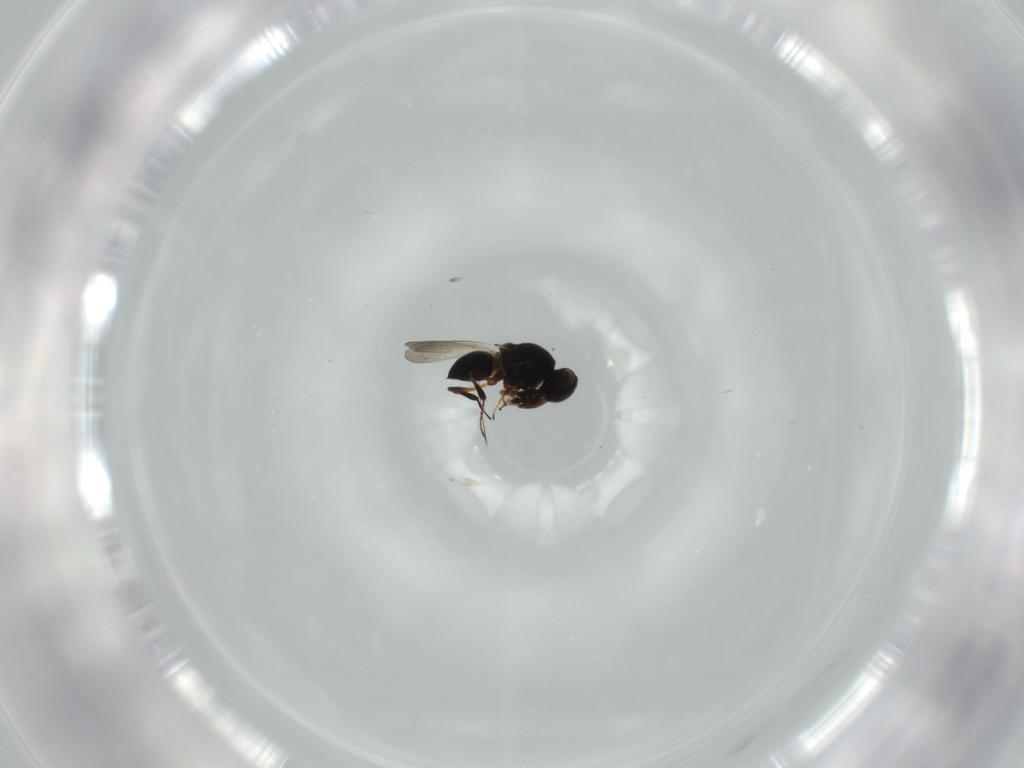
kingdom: Animalia
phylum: Arthropoda
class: Insecta
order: Hymenoptera
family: Platygastridae
